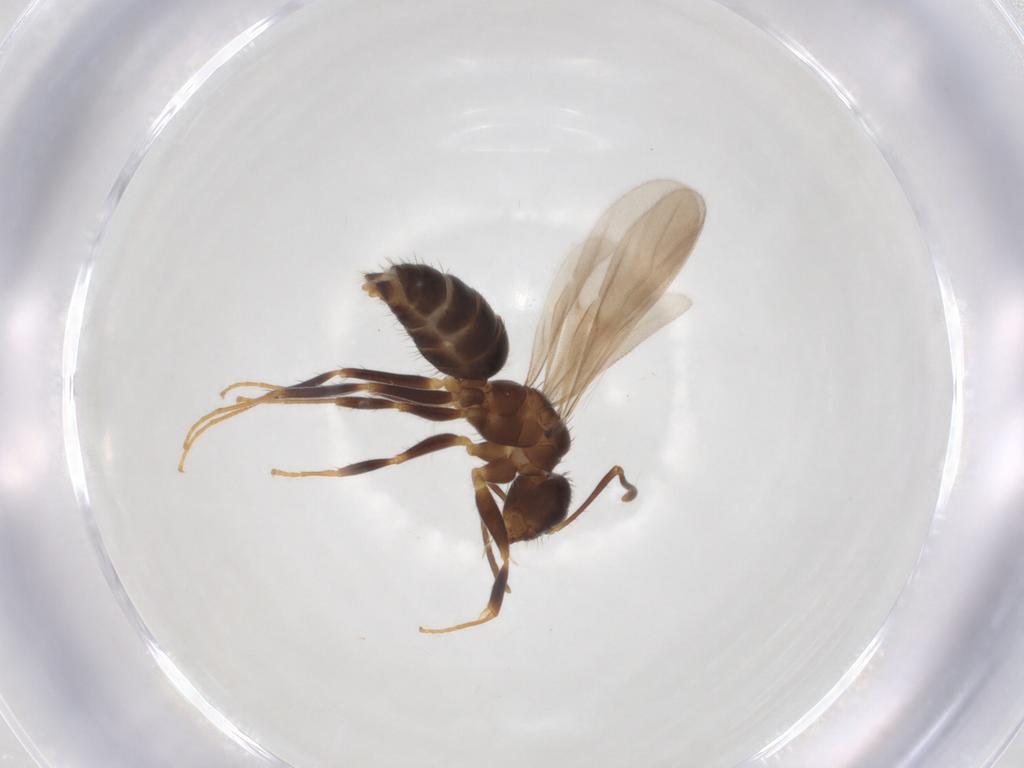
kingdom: Animalia
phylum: Arthropoda
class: Insecta
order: Hymenoptera
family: Formicidae
